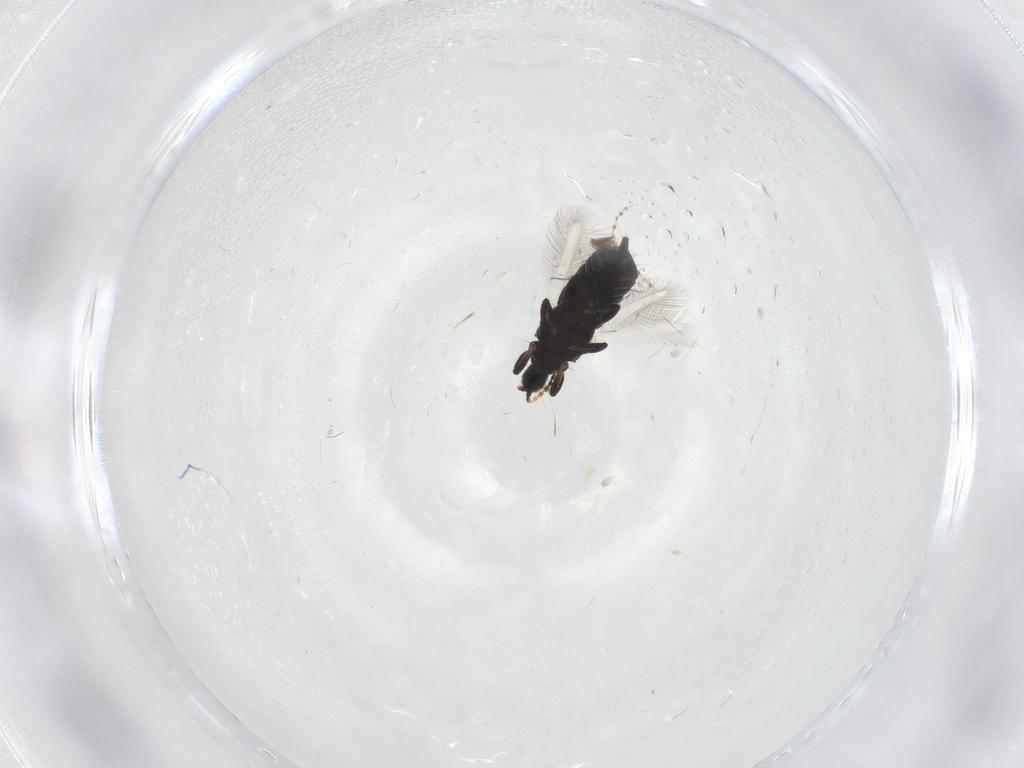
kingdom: Animalia
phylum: Arthropoda
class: Insecta
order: Thysanoptera
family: Phlaeothripidae
